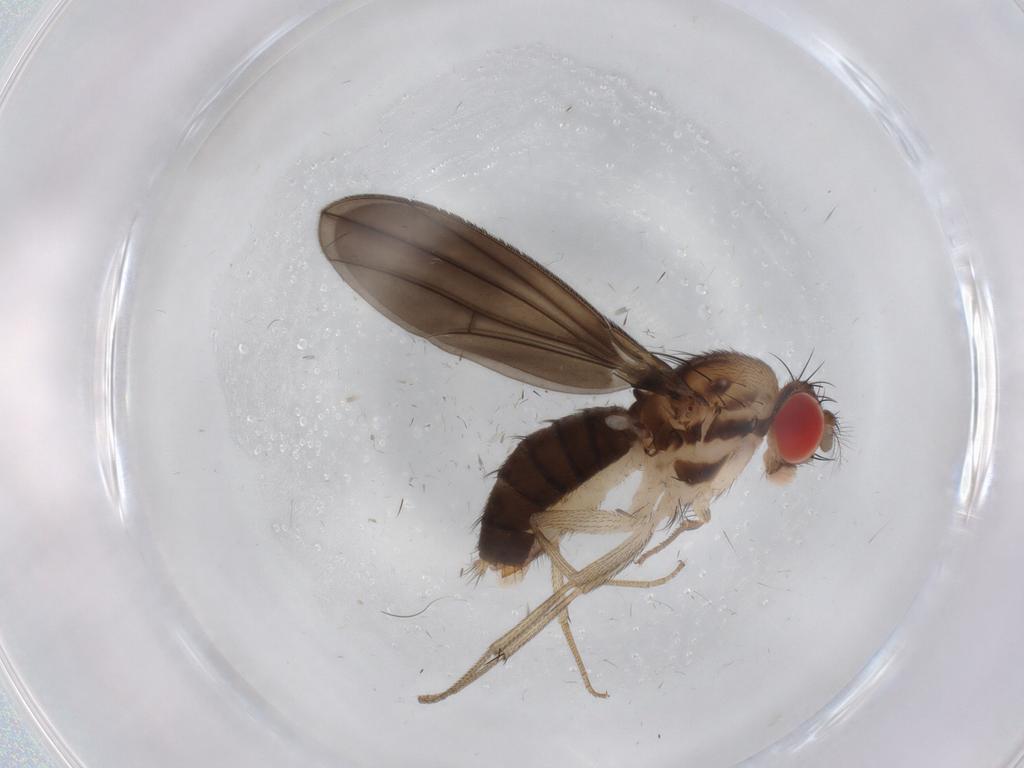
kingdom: Animalia
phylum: Arthropoda
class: Insecta
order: Diptera
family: Drosophilidae
